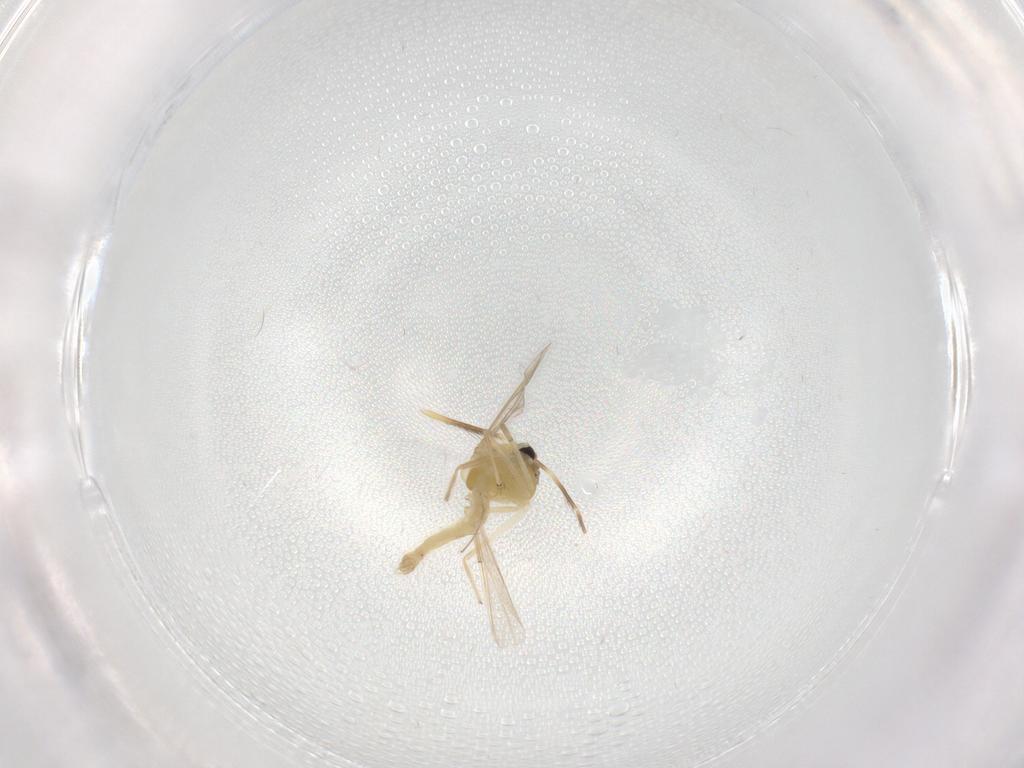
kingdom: Animalia
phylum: Arthropoda
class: Insecta
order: Diptera
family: Chironomidae
